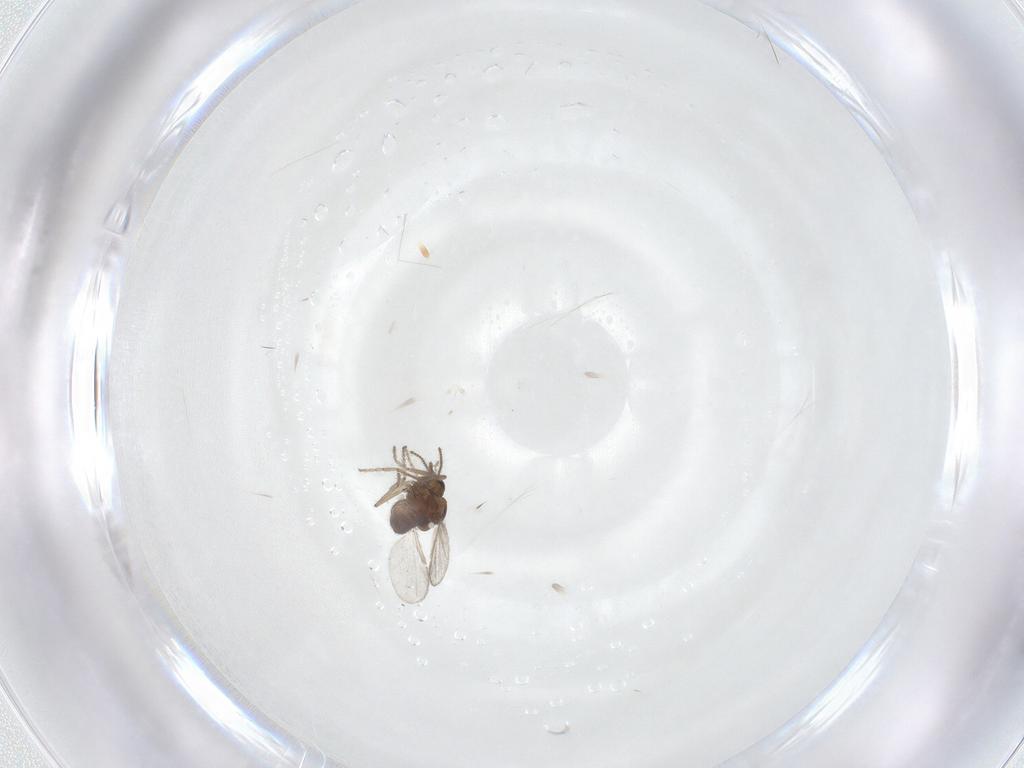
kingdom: Animalia
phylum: Arthropoda
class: Insecta
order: Diptera
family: Ceratopogonidae
